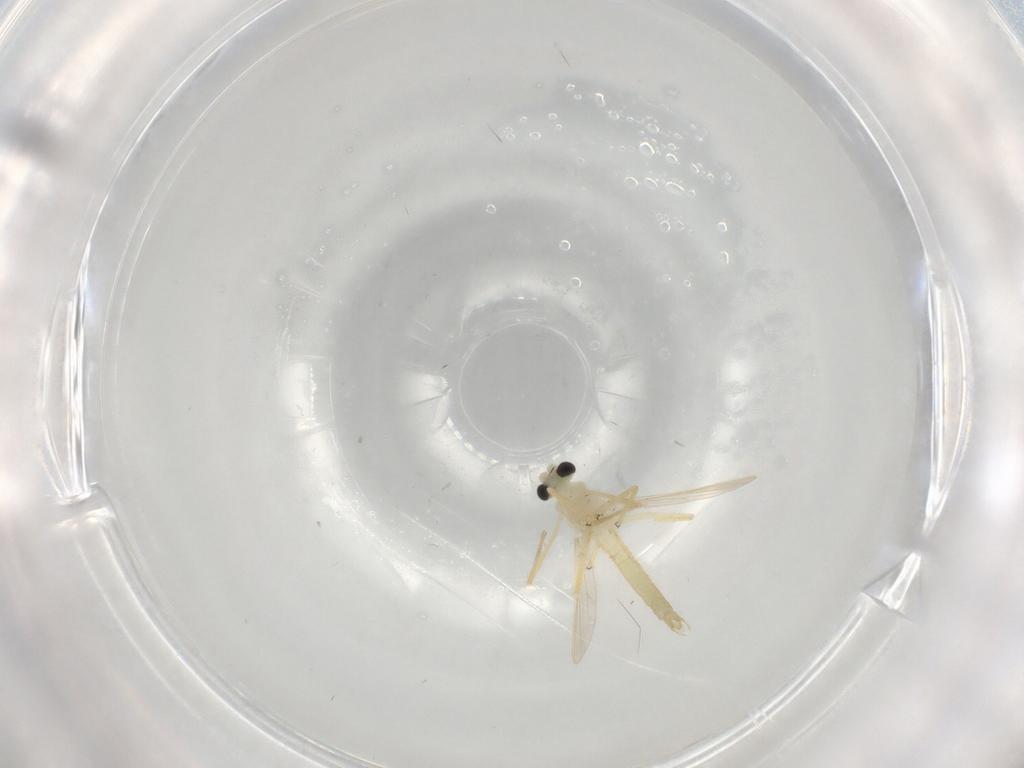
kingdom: Animalia
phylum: Arthropoda
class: Insecta
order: Diptera
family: Chironomidae
